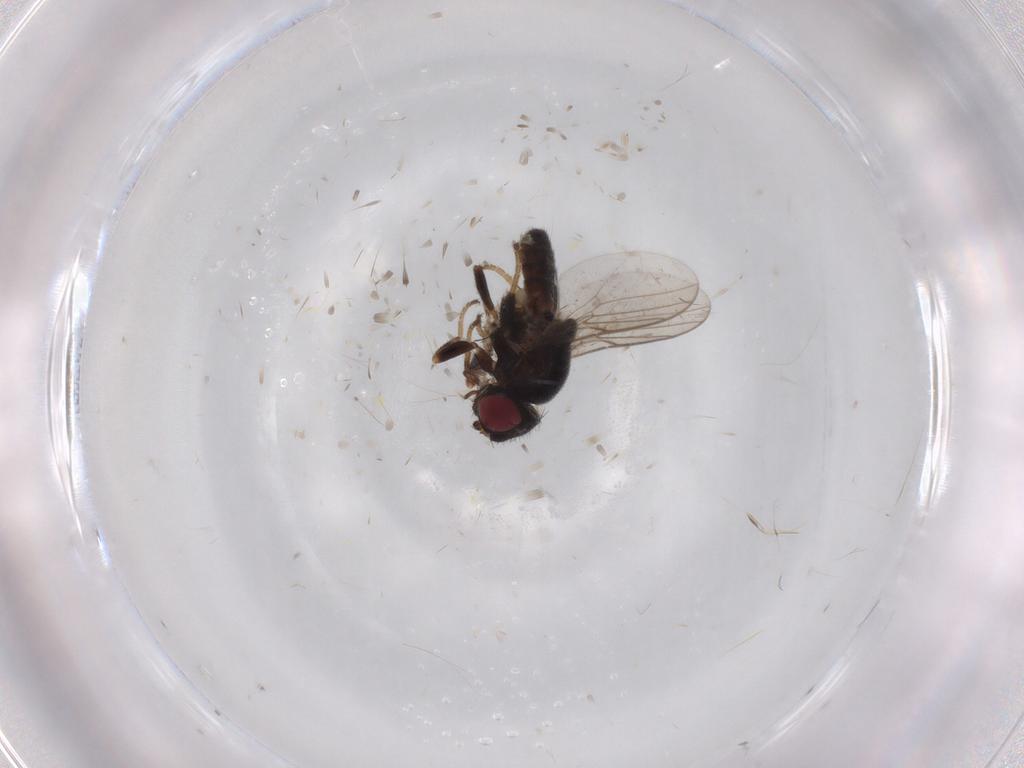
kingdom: Animalia
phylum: Arthropoda
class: Insecta
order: Diptera
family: Chloropidae
